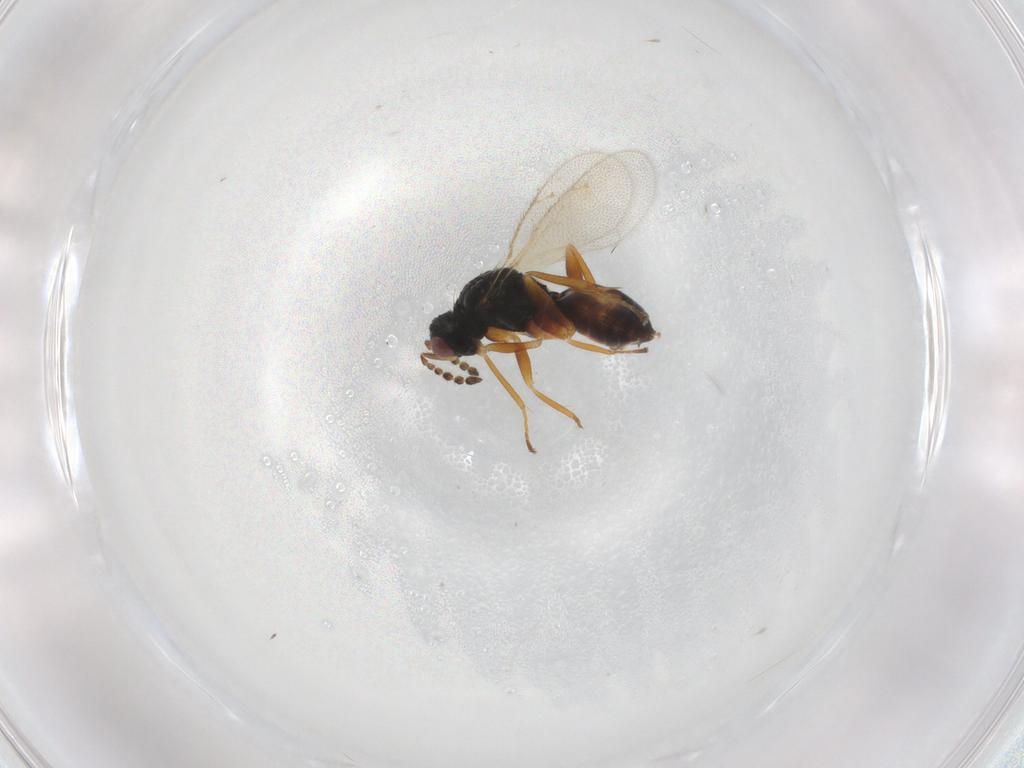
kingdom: Animalia
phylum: Arthropoda
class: Insecta
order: Hymenoptera
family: Eulophidae
